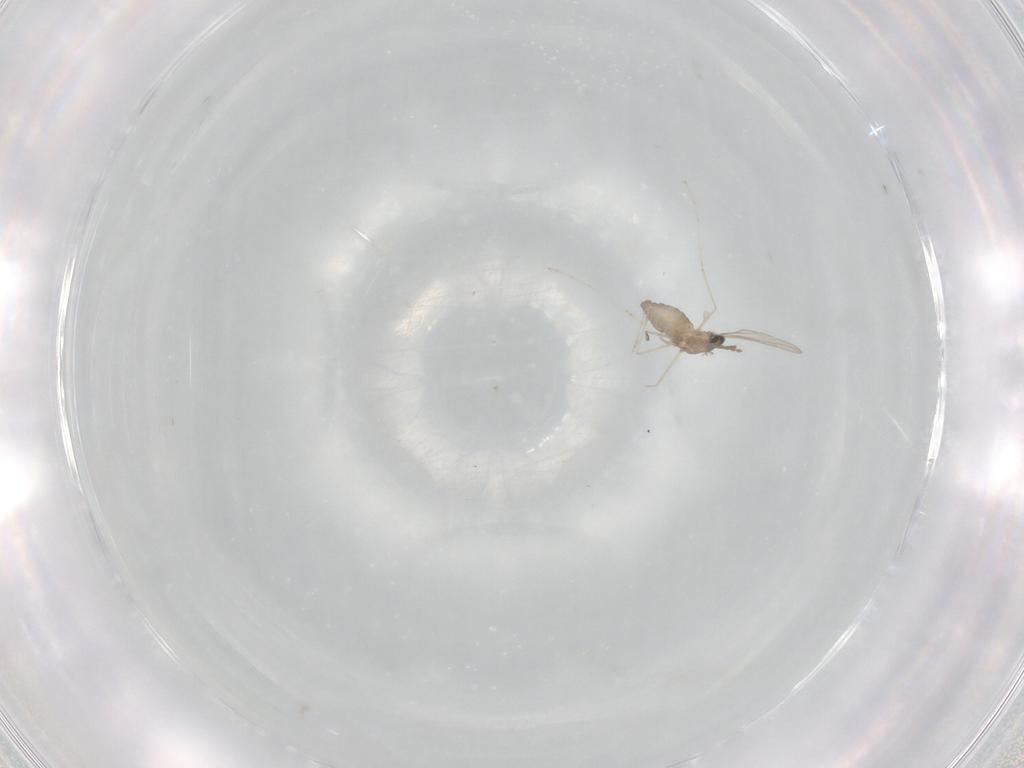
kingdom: Animalia
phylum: Arthropoda
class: Insecta
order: Diptera
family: Cecidomyiidae
